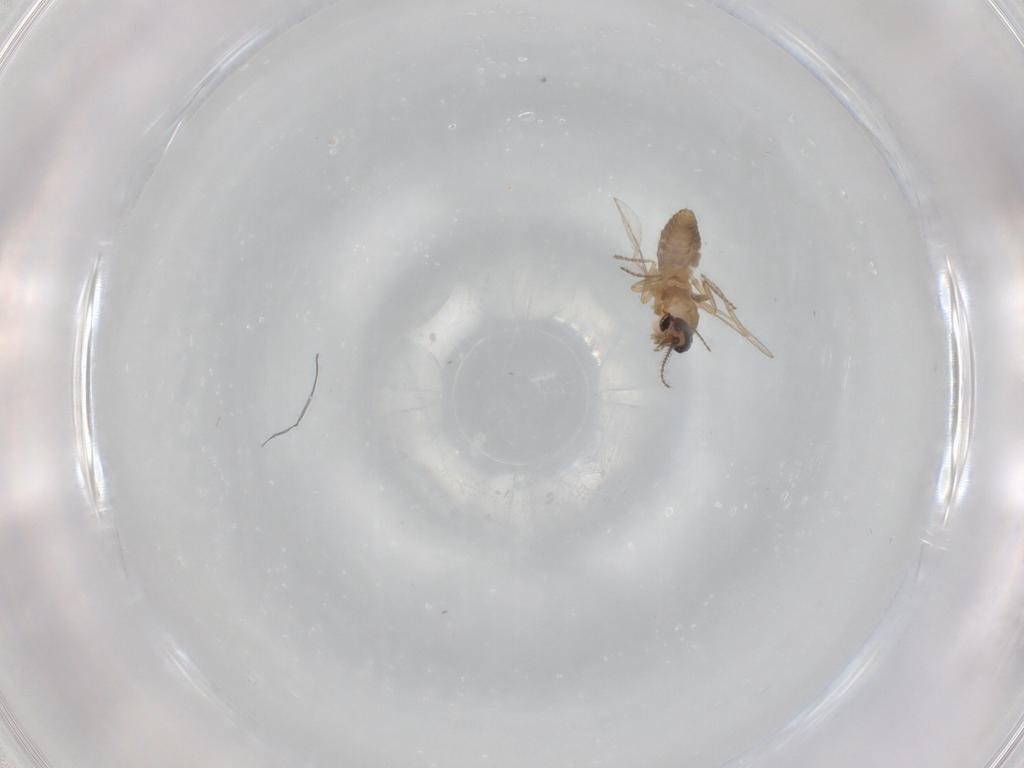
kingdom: Animalia
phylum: Arthropoda
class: Insecta
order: Diptera
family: Ceratopogonidae
